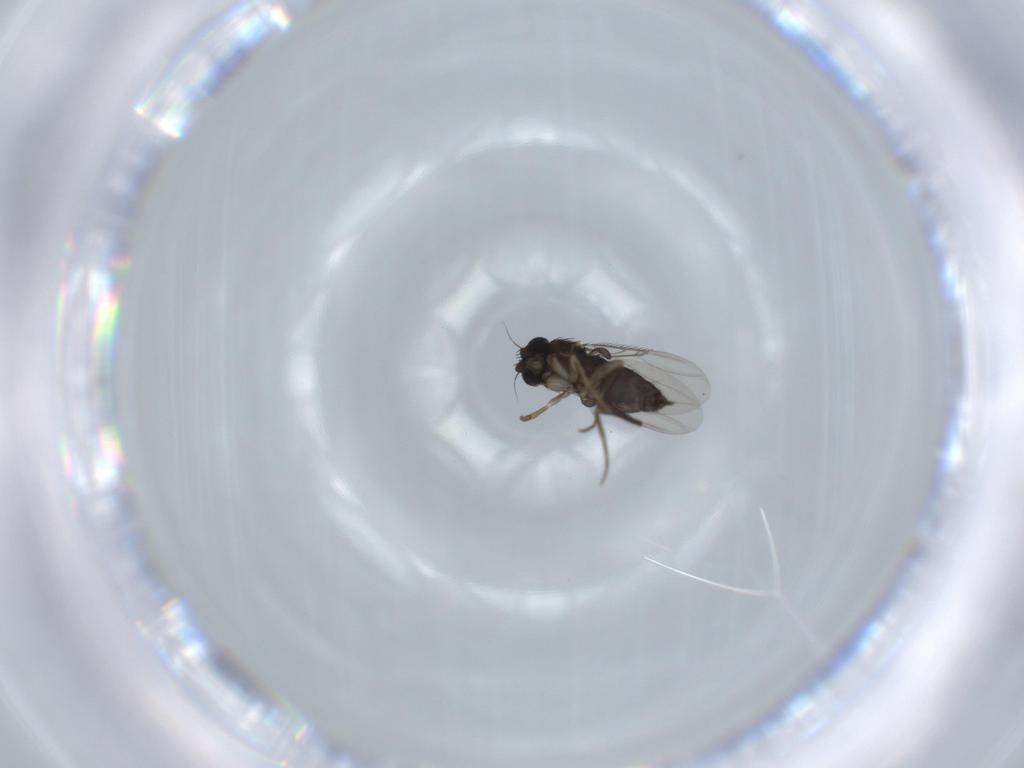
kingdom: Animalia
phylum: Arthropoda
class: Insecta
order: Diptera
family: Phoridae
